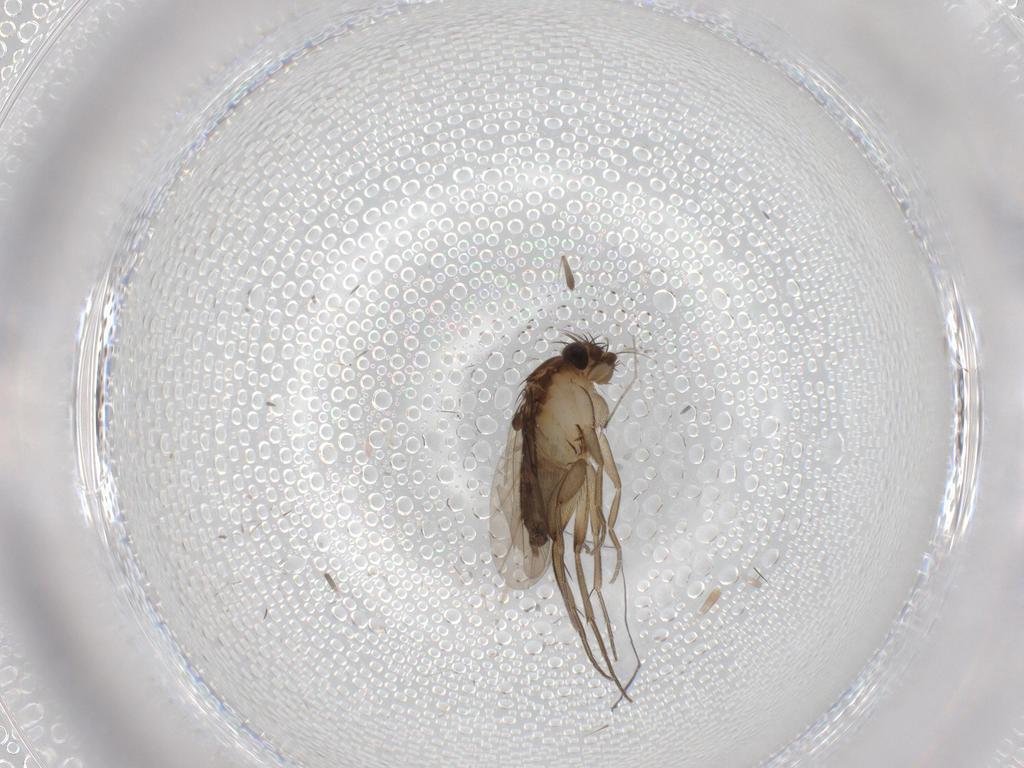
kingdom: Animalia
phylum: Arthropoda
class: Insecta
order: Diptera
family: Phoridae
